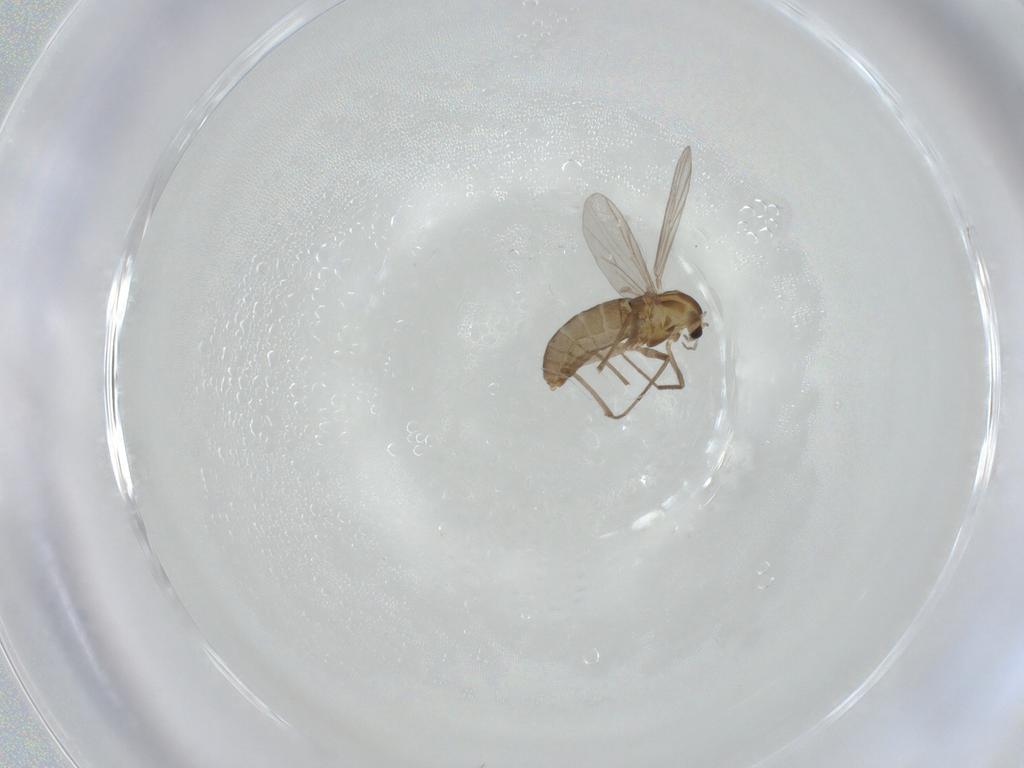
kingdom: Animalia
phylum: Arthropoda
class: Insecta
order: Diptera
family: Chironomidae
